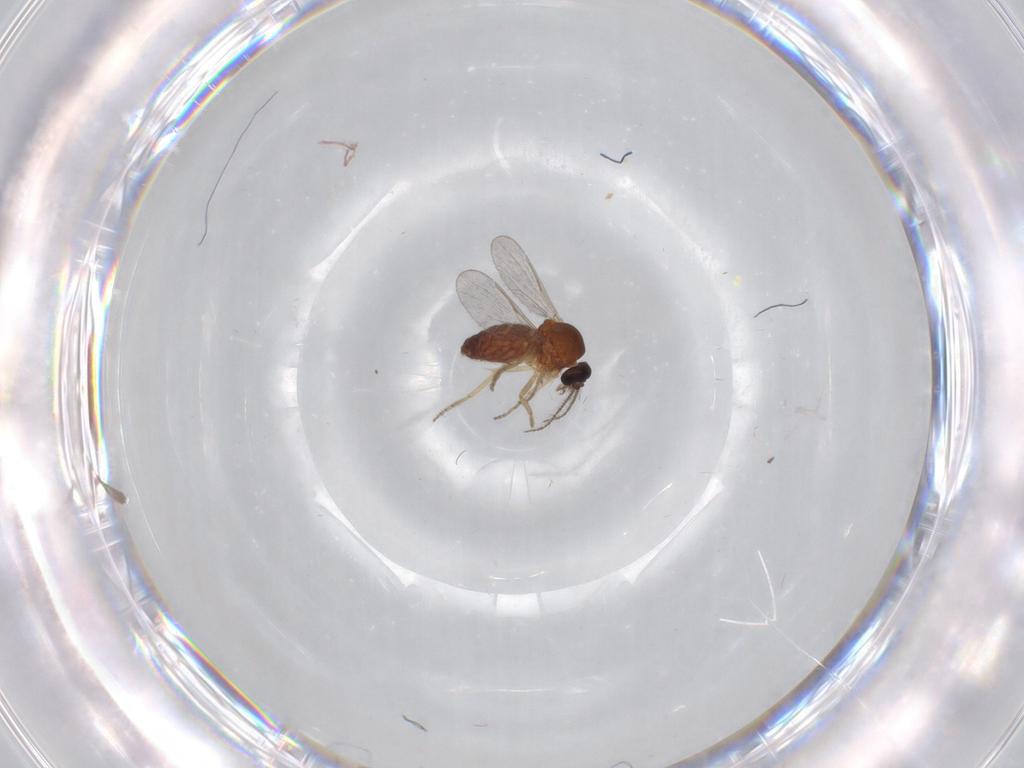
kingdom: Animalia
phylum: Arthropoda
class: Insecta
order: Diptera
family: Ceratopogonidae
